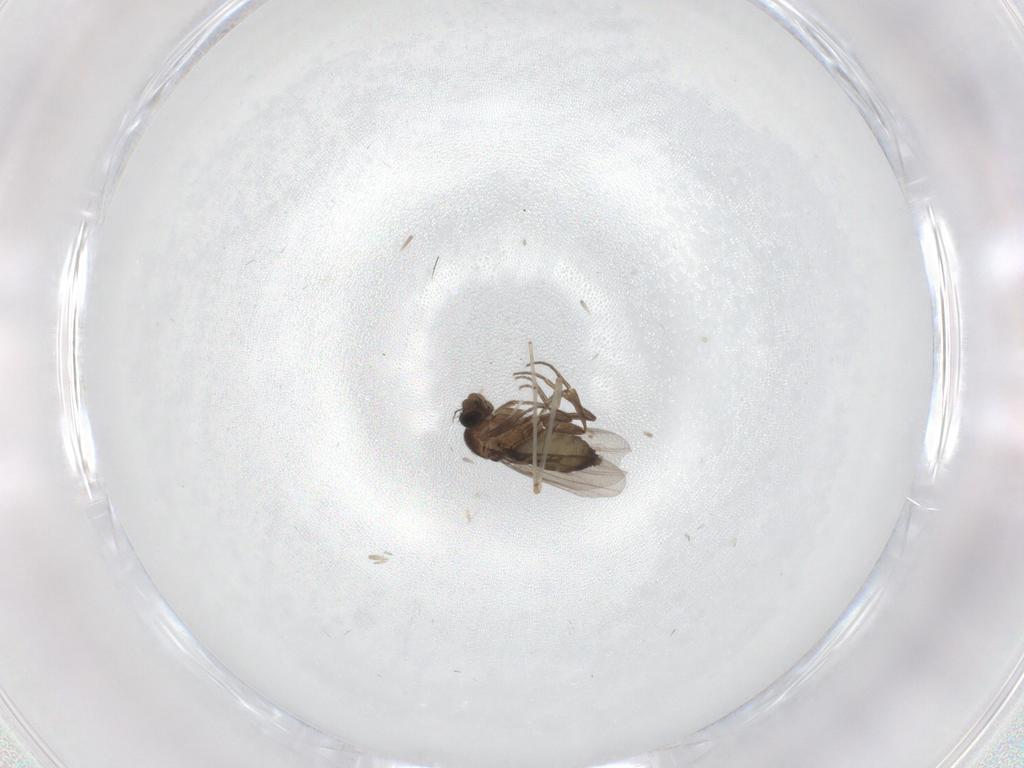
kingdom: Animalia
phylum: Arthropoda
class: Insecta
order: Diptera
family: Phoridae
